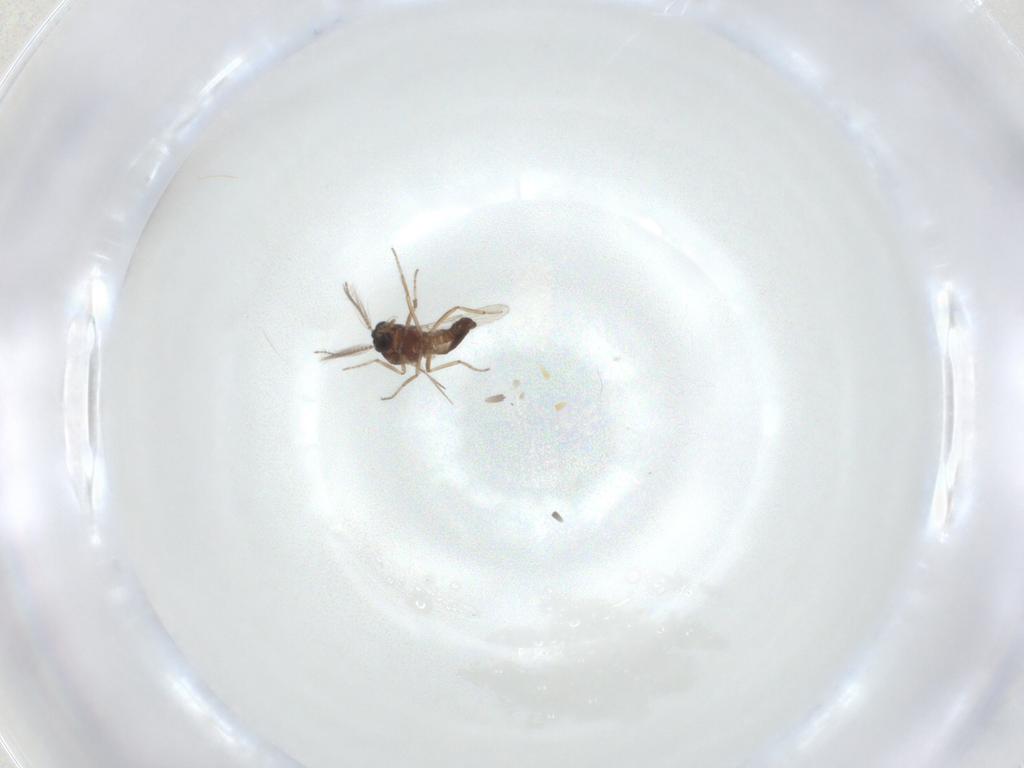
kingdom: Animalia
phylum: Arthropoda
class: Insecta
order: Diptera
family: Ceratopogonidae
